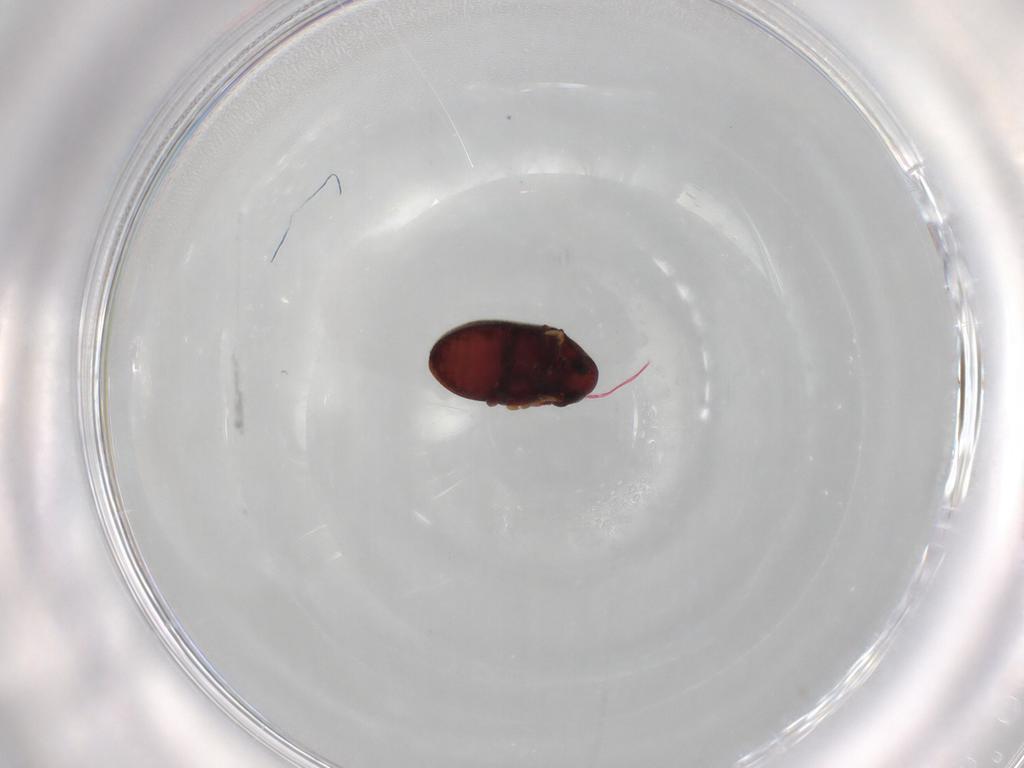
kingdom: Animalia
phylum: Arthropoda
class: Insecta
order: Coleoptera
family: Ptinidae
